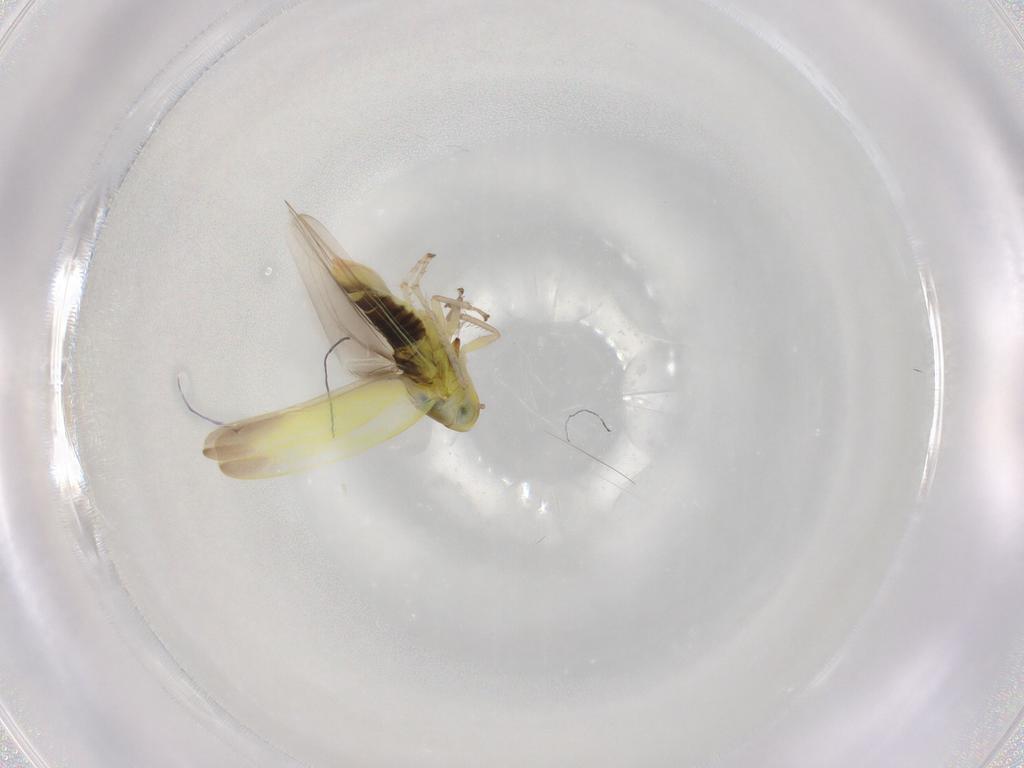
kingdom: Animalia
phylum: Arthropoda
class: Insecta
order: Hemiptera
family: Cicadellidae
